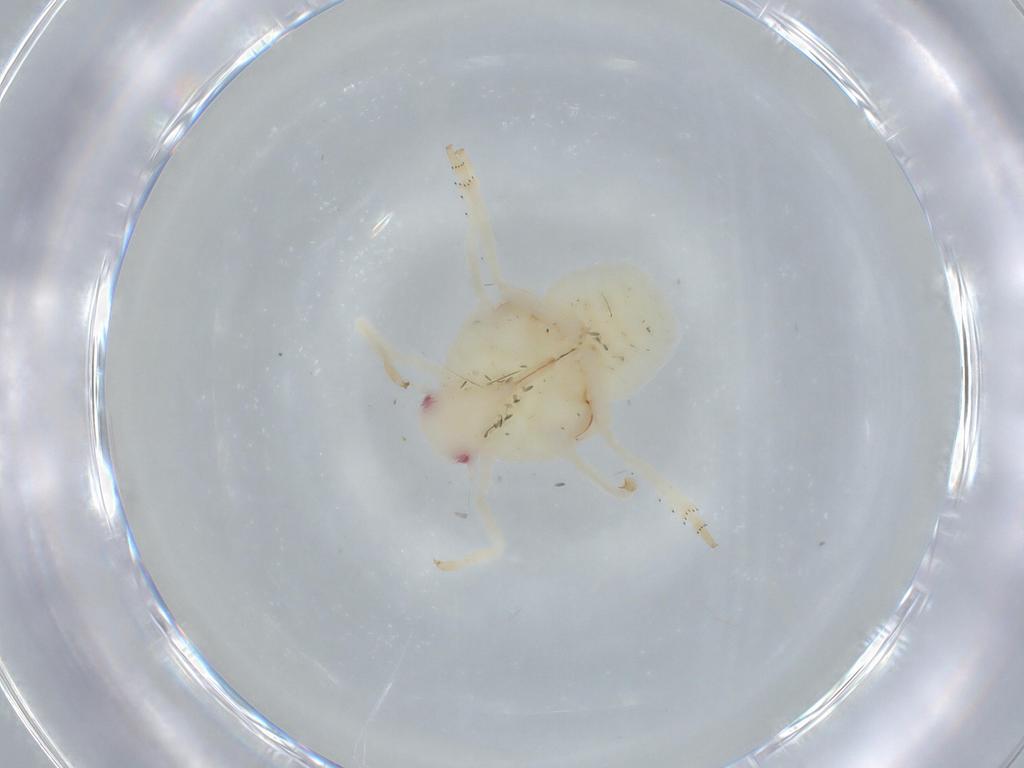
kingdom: Animalia
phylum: Arthropoda
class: Insecta
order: Hemiptera
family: Flatidae
